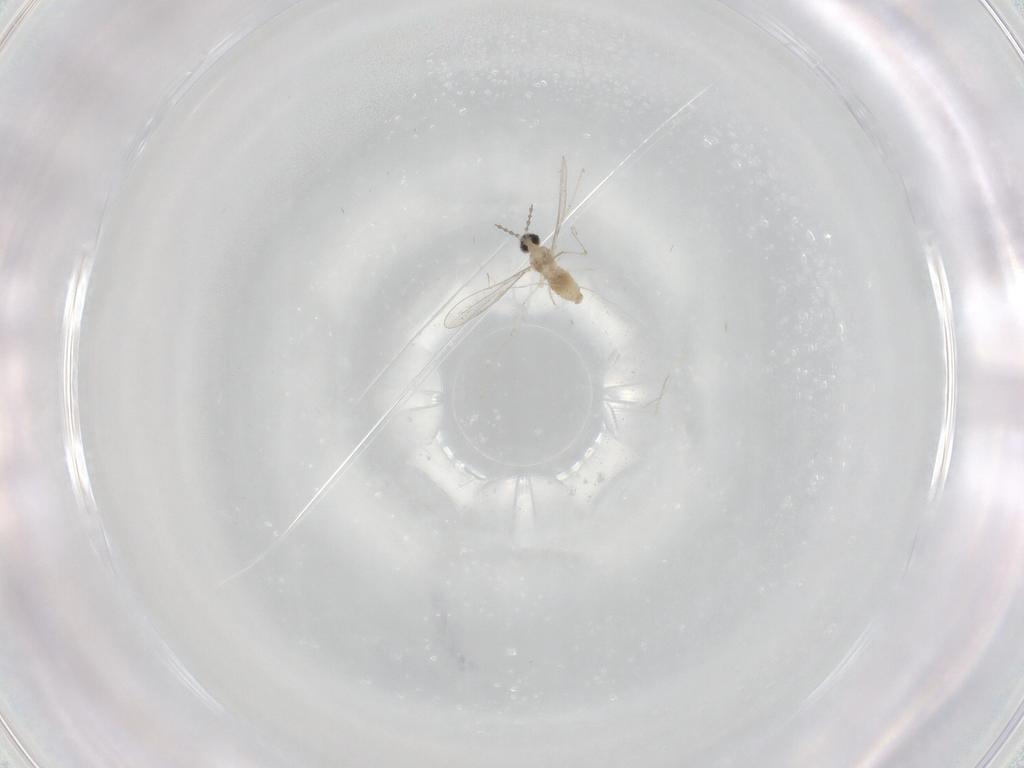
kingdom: Animalia
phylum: Arthropoda
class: Insecta
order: Diptera
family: Cecidomyiidae
